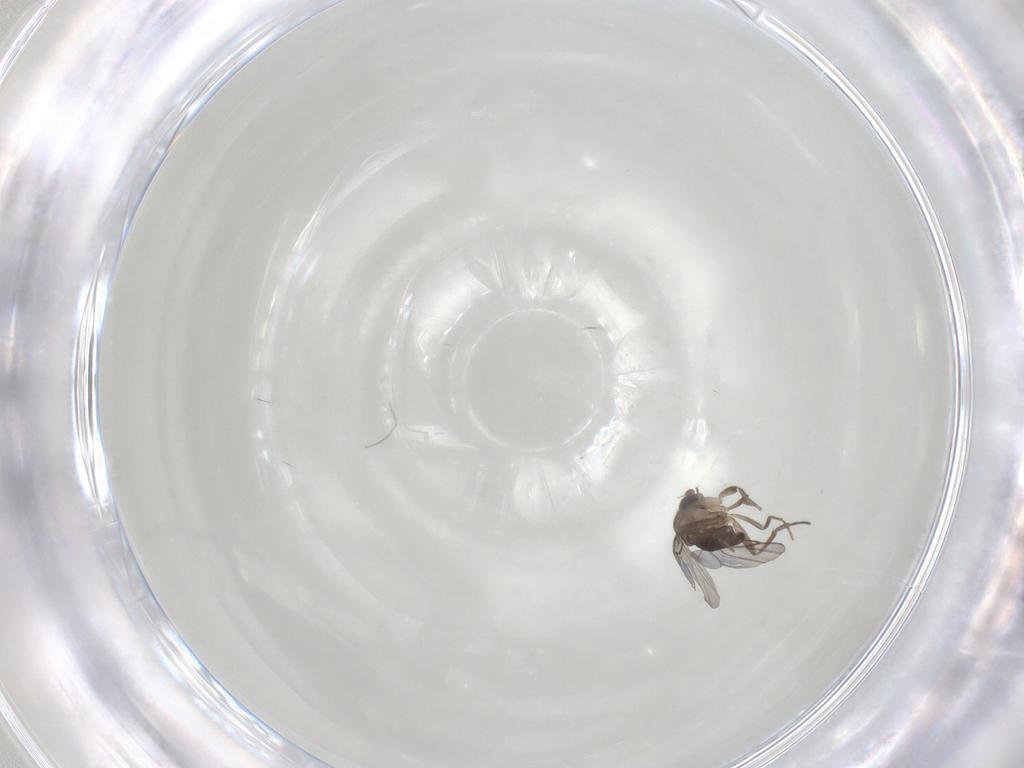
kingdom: Animalia
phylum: Arthropoda
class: Insecta
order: Diptera
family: Phoridae
